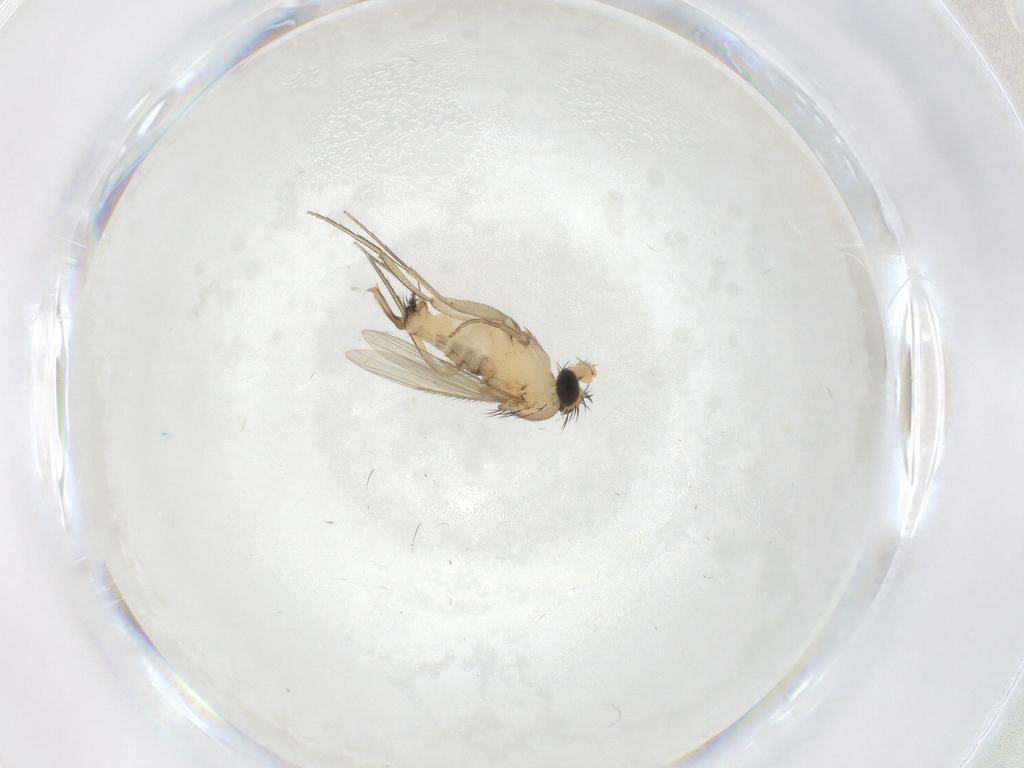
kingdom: Animalia
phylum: Arthropoda
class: Insecta
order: Diptera
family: Phoridae
